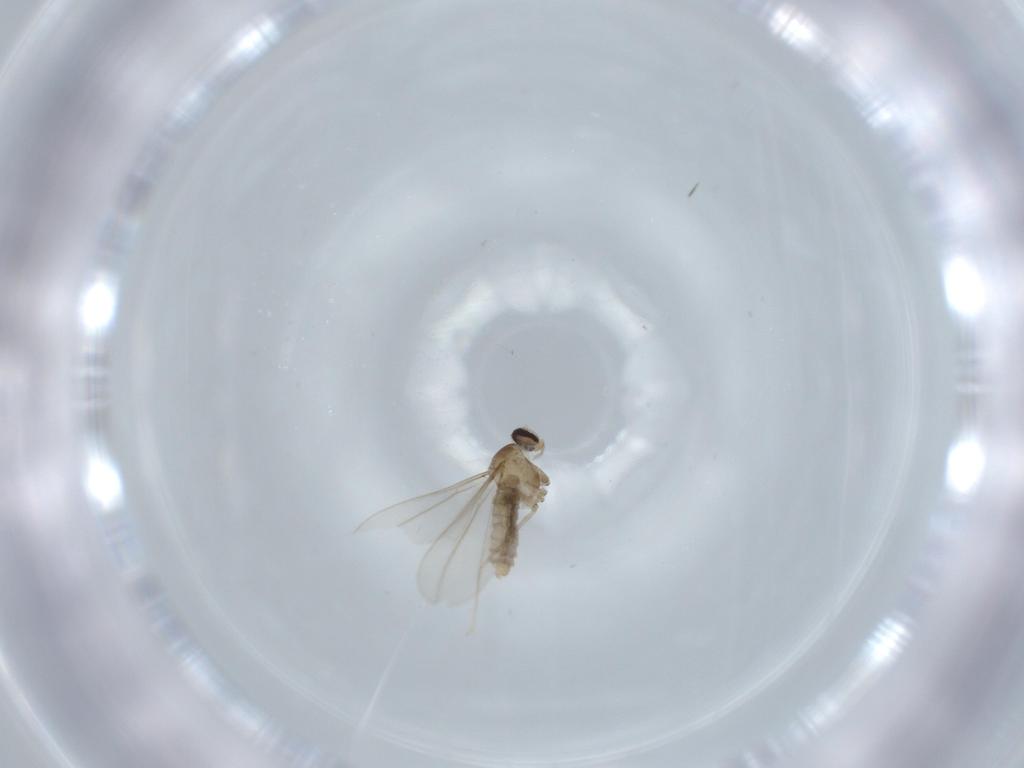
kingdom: Animalia
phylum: Arthropoda
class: Insecta
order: Diptera
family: Cecidomyiidae
